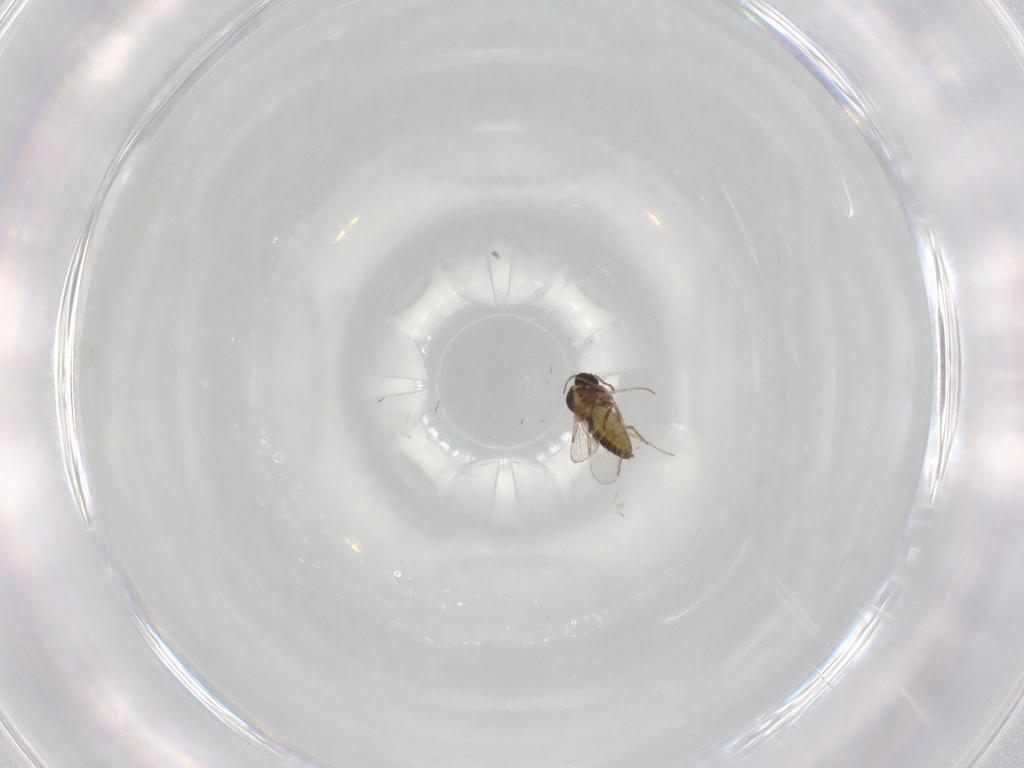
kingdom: Animalia
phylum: Arthropoda
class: Insecta
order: Diptera
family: Ceratopogonidae
